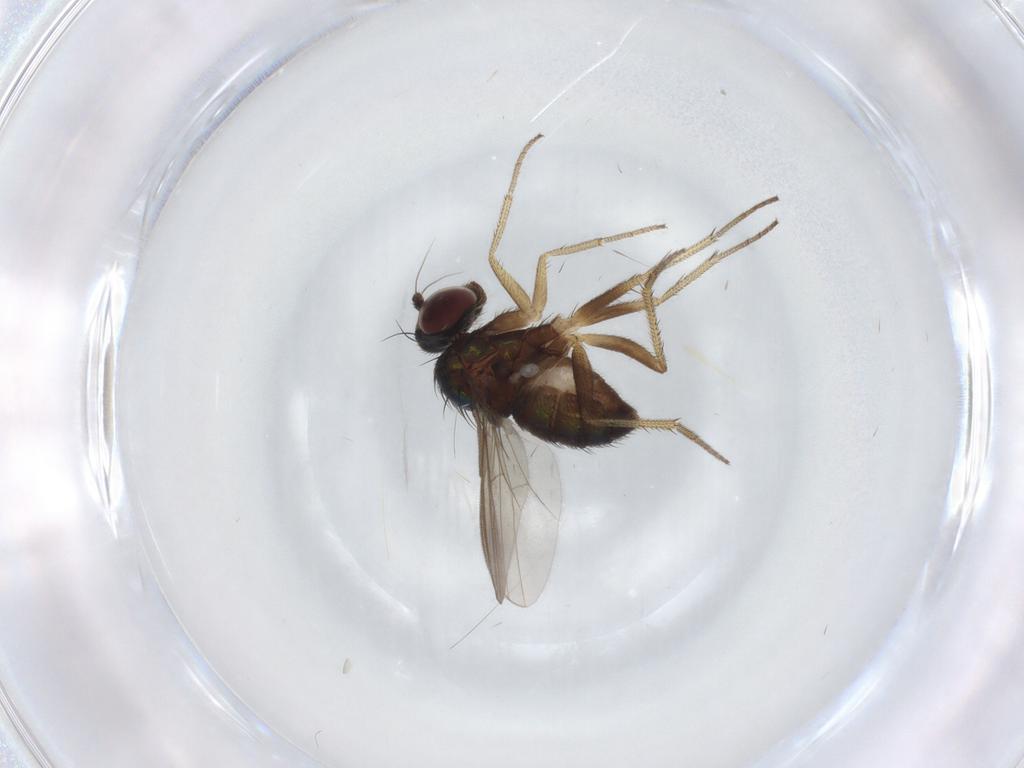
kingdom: Animalia
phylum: Arthropoda
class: Insecta
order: Diptera
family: Dolichopodidae
